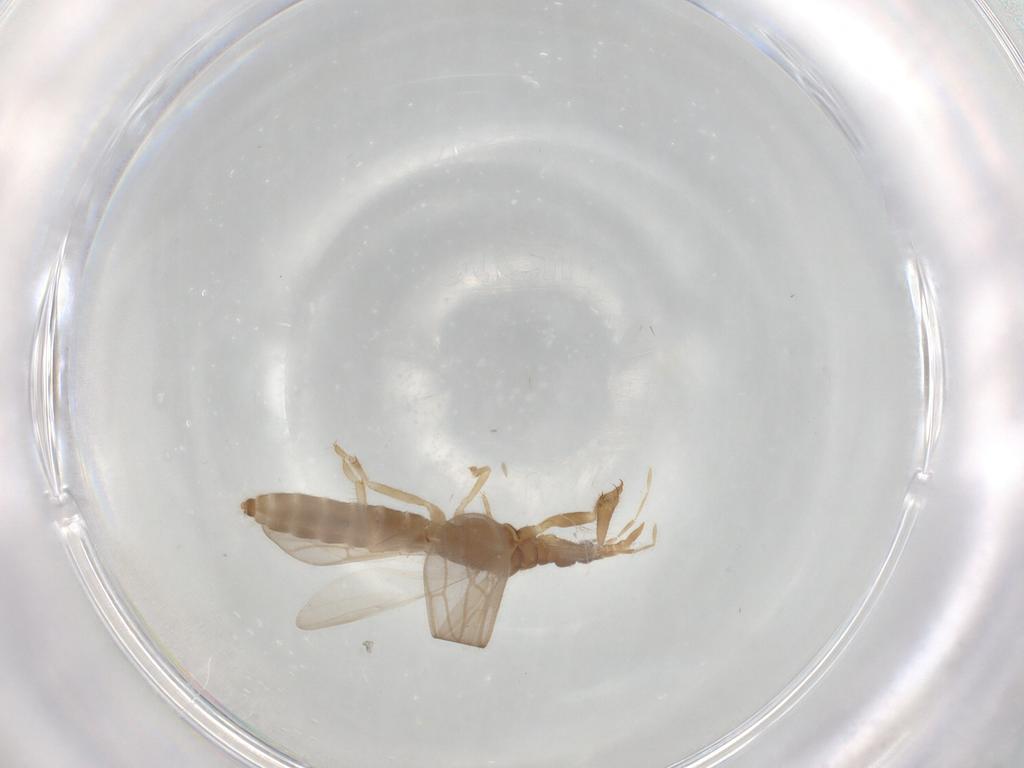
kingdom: Animalia
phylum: Arthropoda
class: Insecta
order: Hemiptera
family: Enicocephalidae
